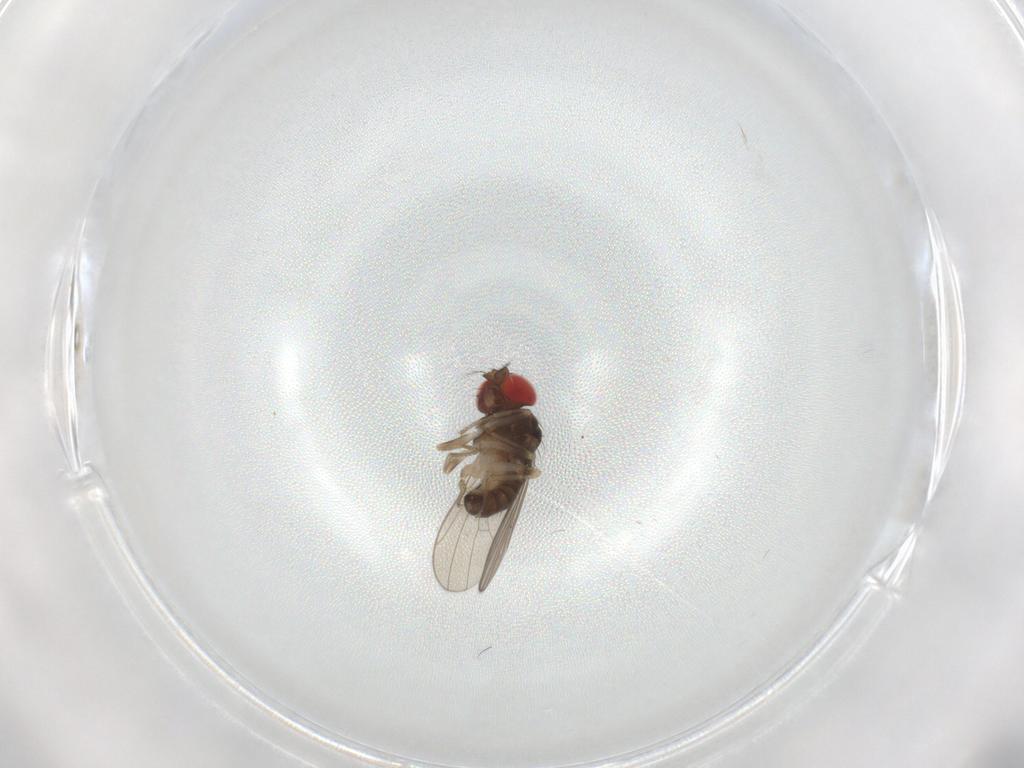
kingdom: Animalia
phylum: Arthropoda
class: Insecta
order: Diptera
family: Drosophilidae
